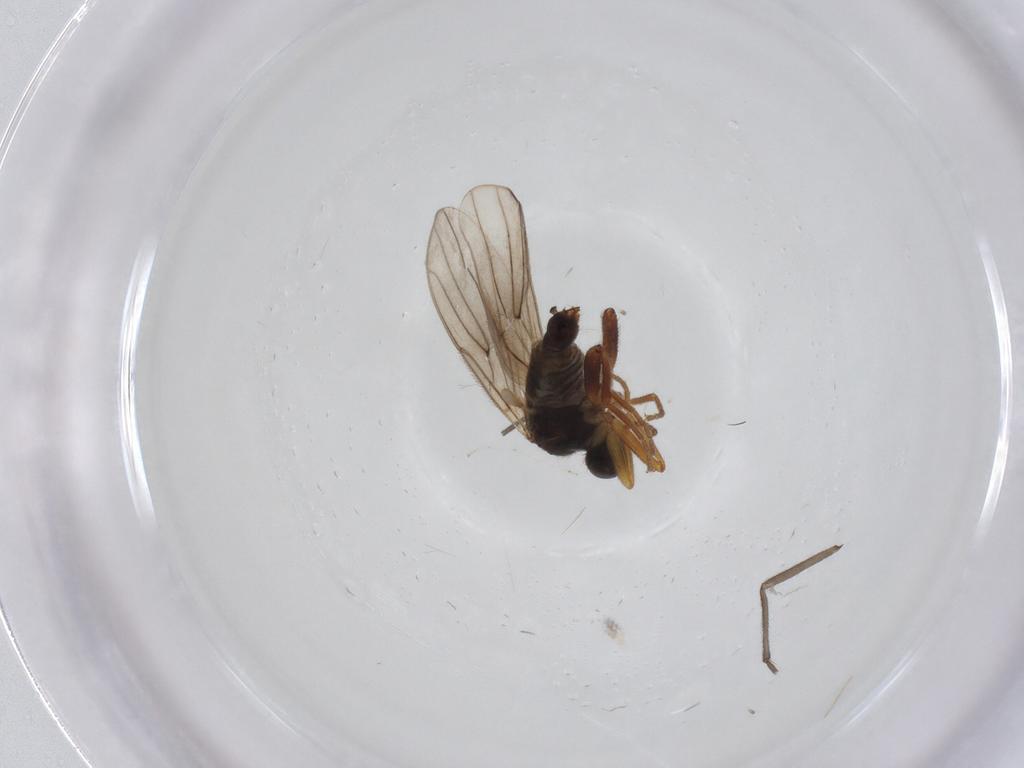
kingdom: Animalia
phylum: Arthropoda
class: Insecta
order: Diptera
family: Hybotidae
